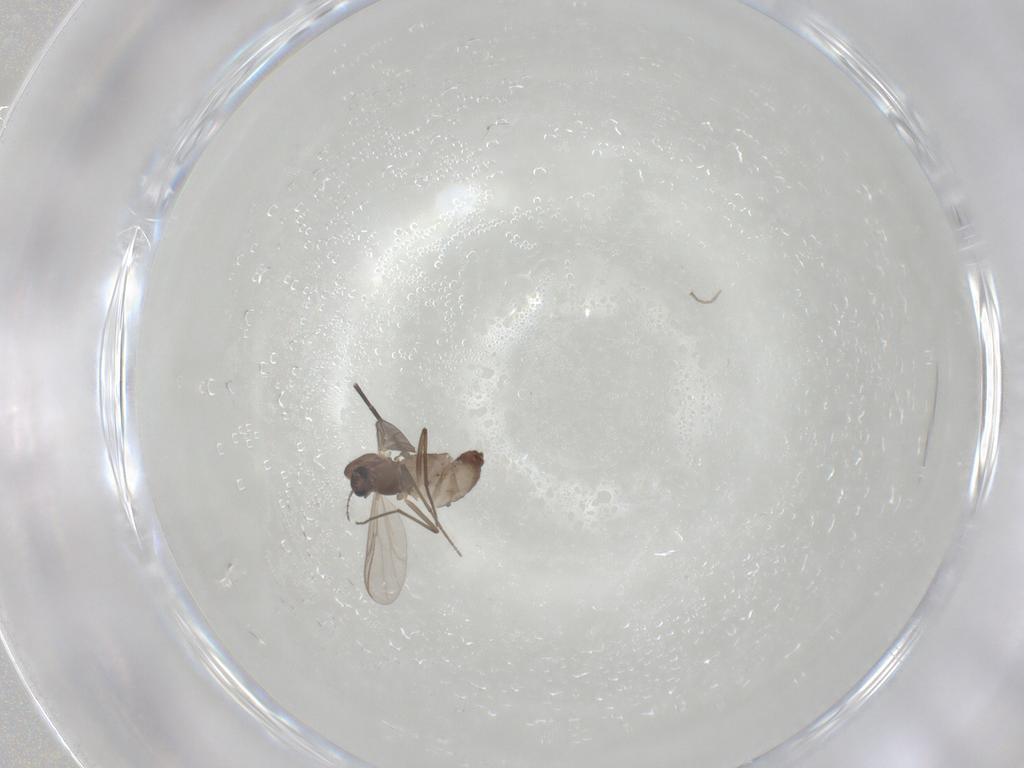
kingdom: Animalia
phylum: Arthropoda
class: Insecta
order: Diptera
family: Chironomidae
